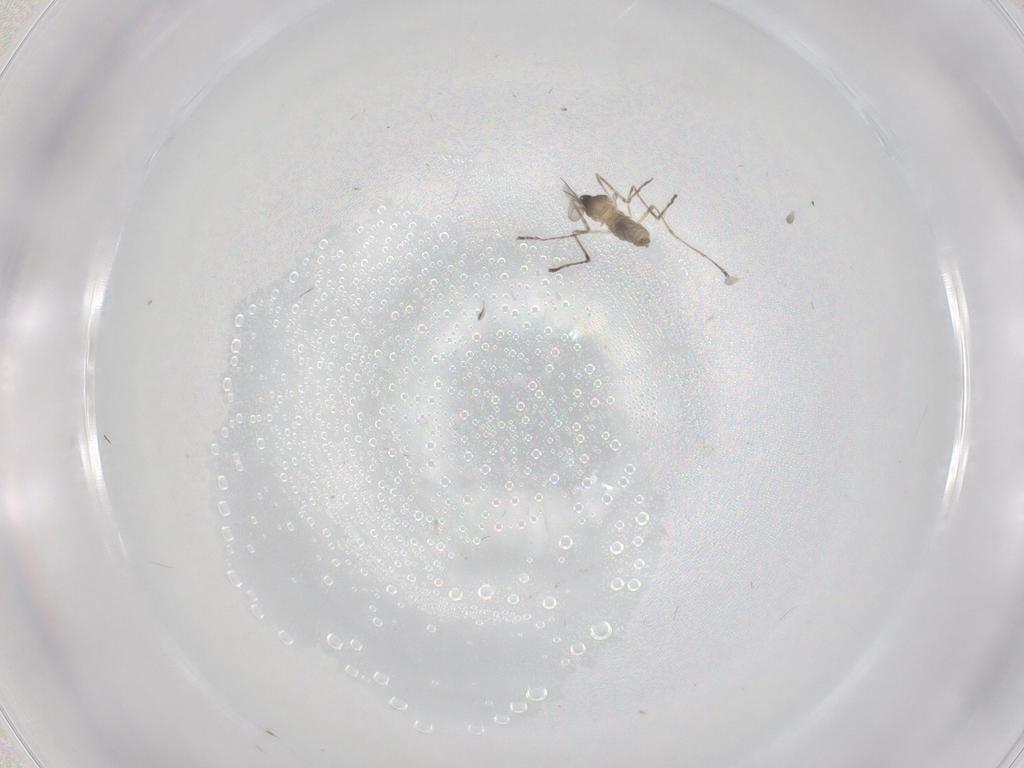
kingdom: Animalia
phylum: Arthropoda
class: Insecta
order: Diptera
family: Cecidomyiidae
